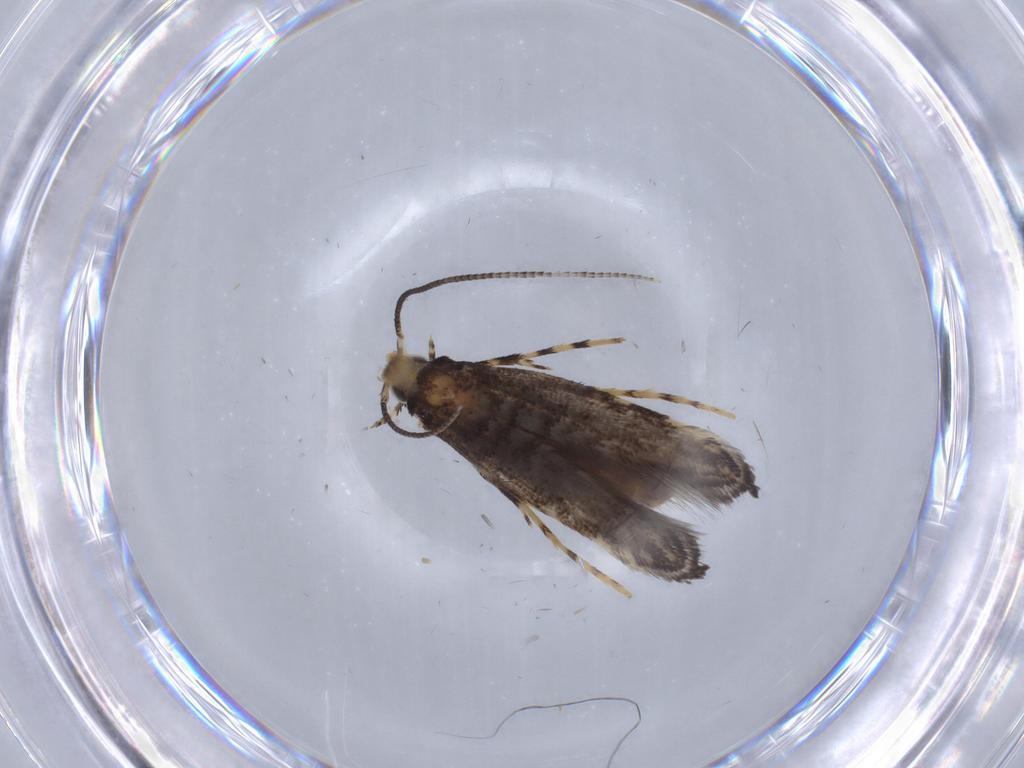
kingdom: Animalia
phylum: Arthropoda
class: Insecta
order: Lepidoptera
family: Gracillariidae
